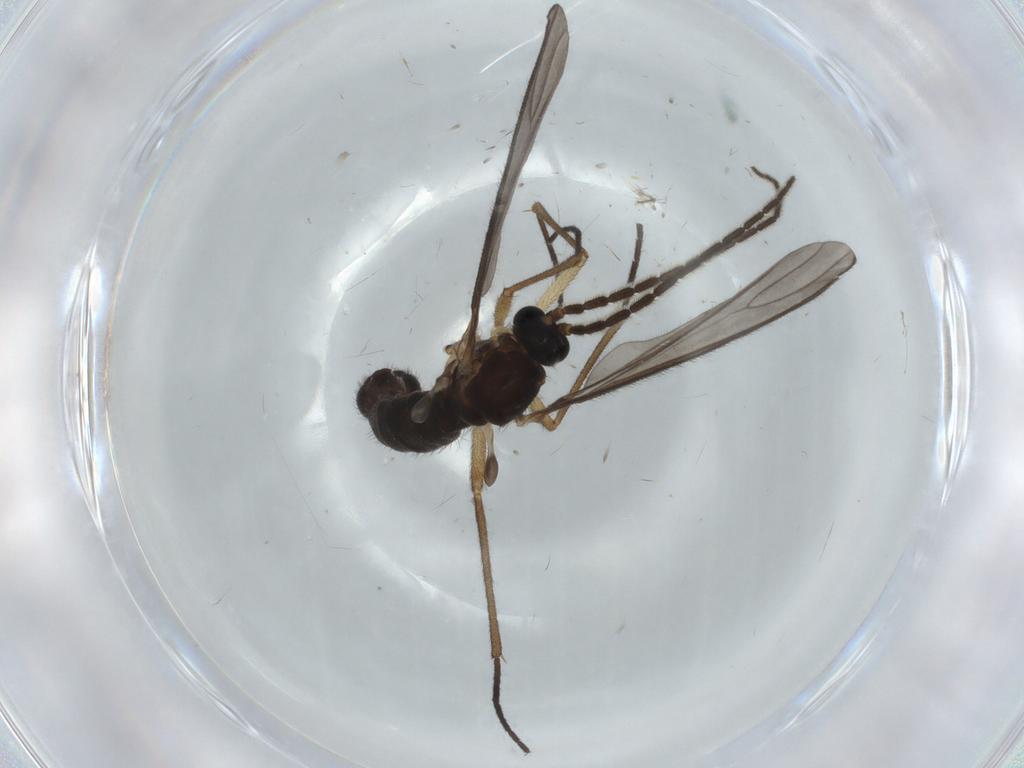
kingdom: Animalia
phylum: Arthropoda
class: Insecta
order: Diptera
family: Sciaridae
